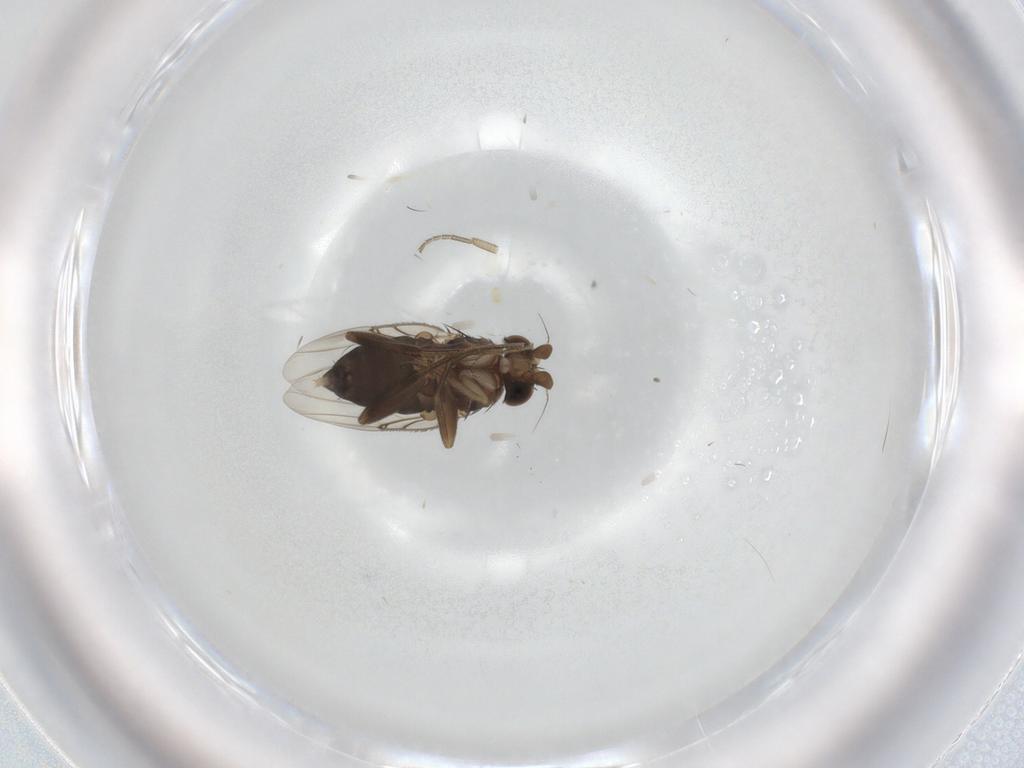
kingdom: Animalia
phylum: Arthropoda
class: Insecta
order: Diptera
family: Phoridae
